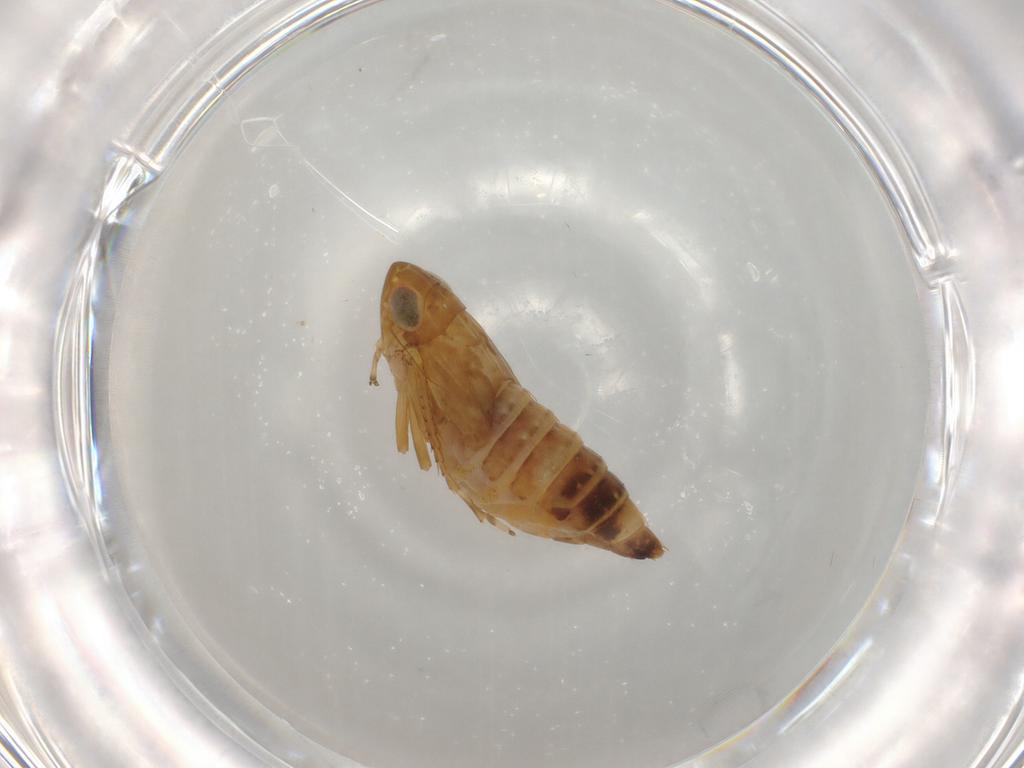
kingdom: Animalia
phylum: Arthropoda
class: Insecta
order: Hemiptera
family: Cicadellidae
